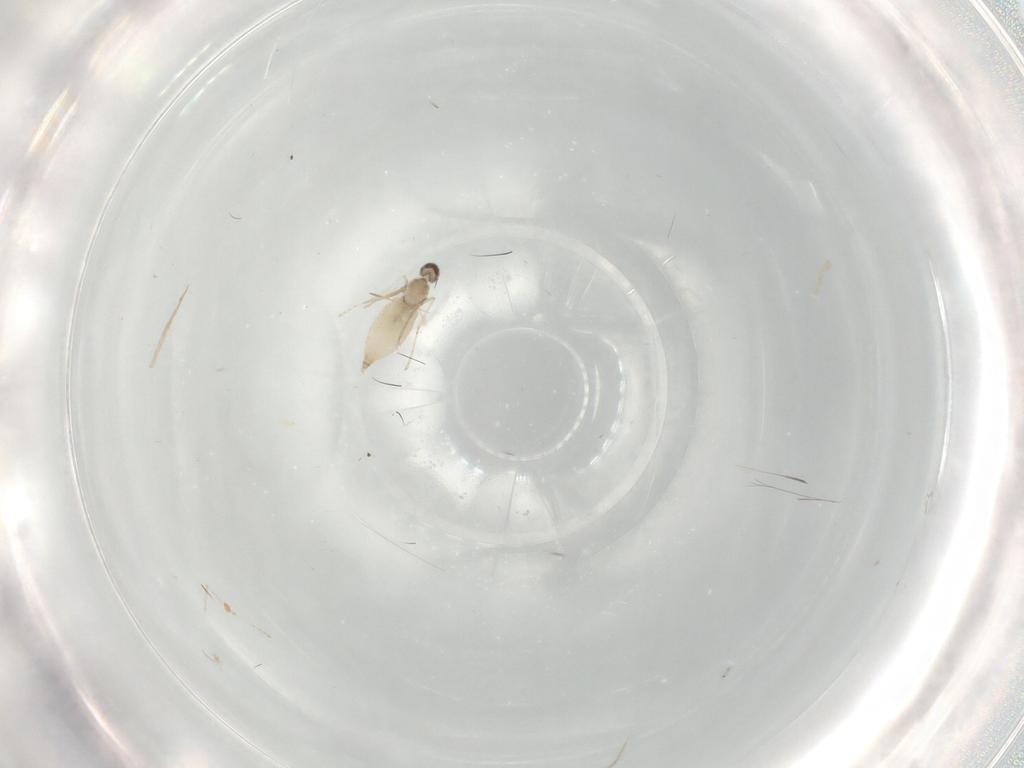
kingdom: Animalia
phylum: Arthropoda
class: Insecta
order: Diptera
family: Cecidomyiidae
